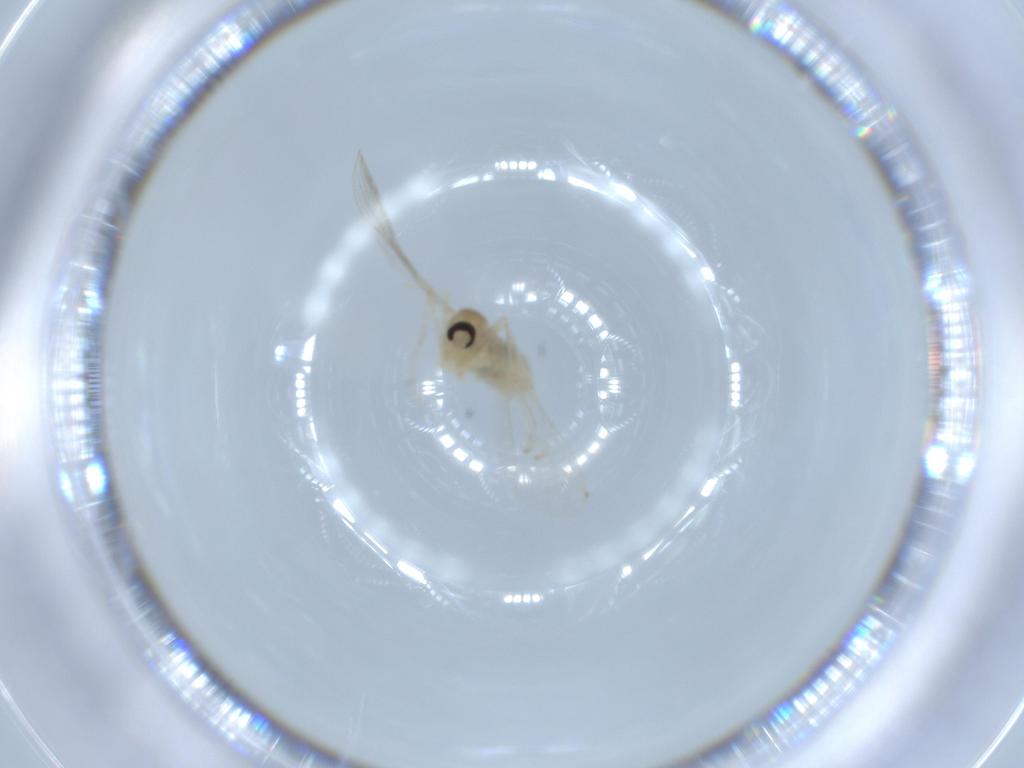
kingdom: Animalia
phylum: Arthropoda
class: Insecta
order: Diptera
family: Cecidomyiidae
